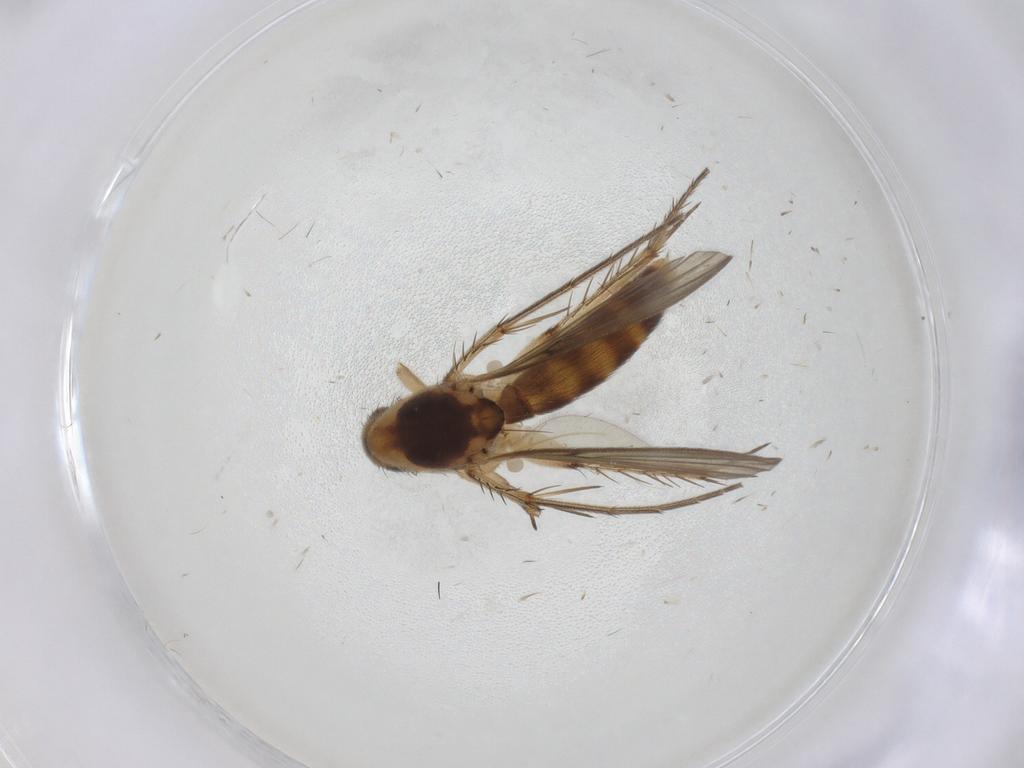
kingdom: Animalia
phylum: Arthropoda
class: Insecta
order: Diptera
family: Mycetophilidae
